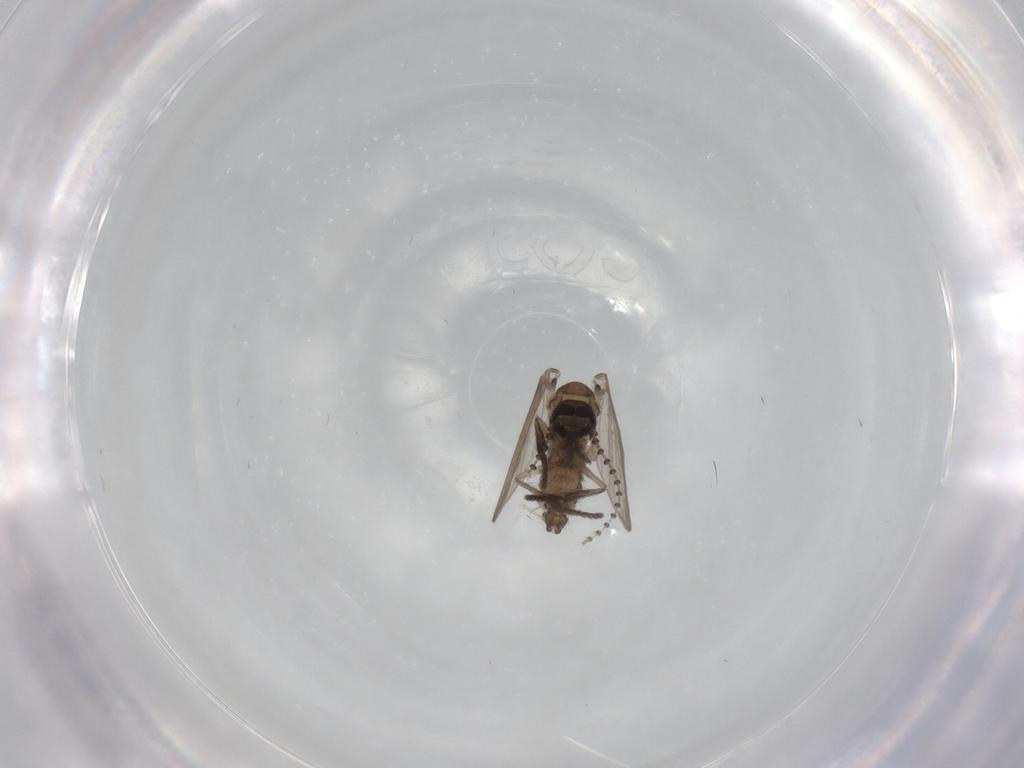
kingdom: Animalia
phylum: Arthropoda
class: Insecta
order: Diptera
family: Psychodidae
